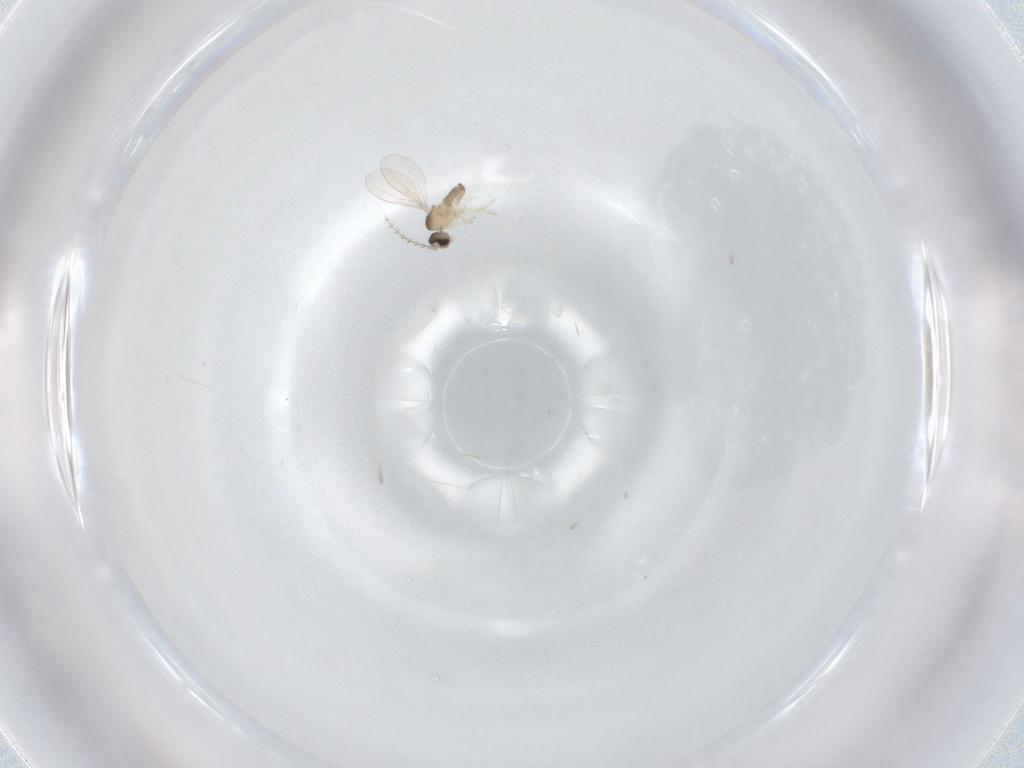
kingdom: Animalia
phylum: Arthropoda
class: Insecta
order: Diptera
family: Cecidomyiidae
